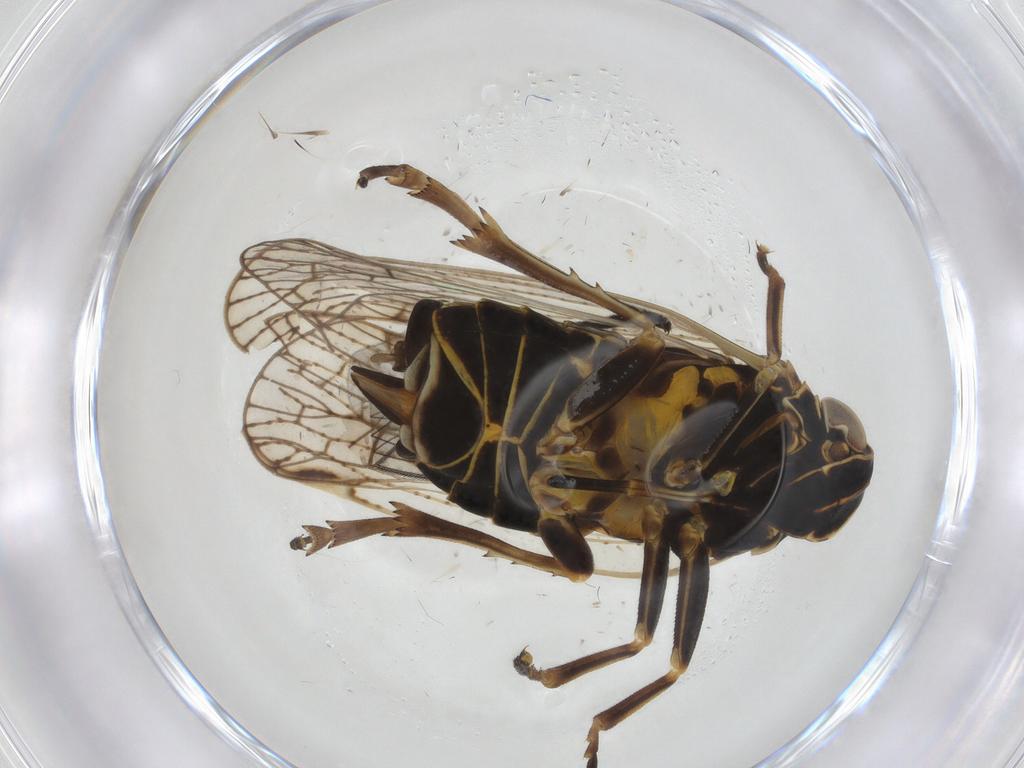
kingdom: Animalia
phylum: Arthropoda
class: Insecta
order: Hemiptera
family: Cixiidae
